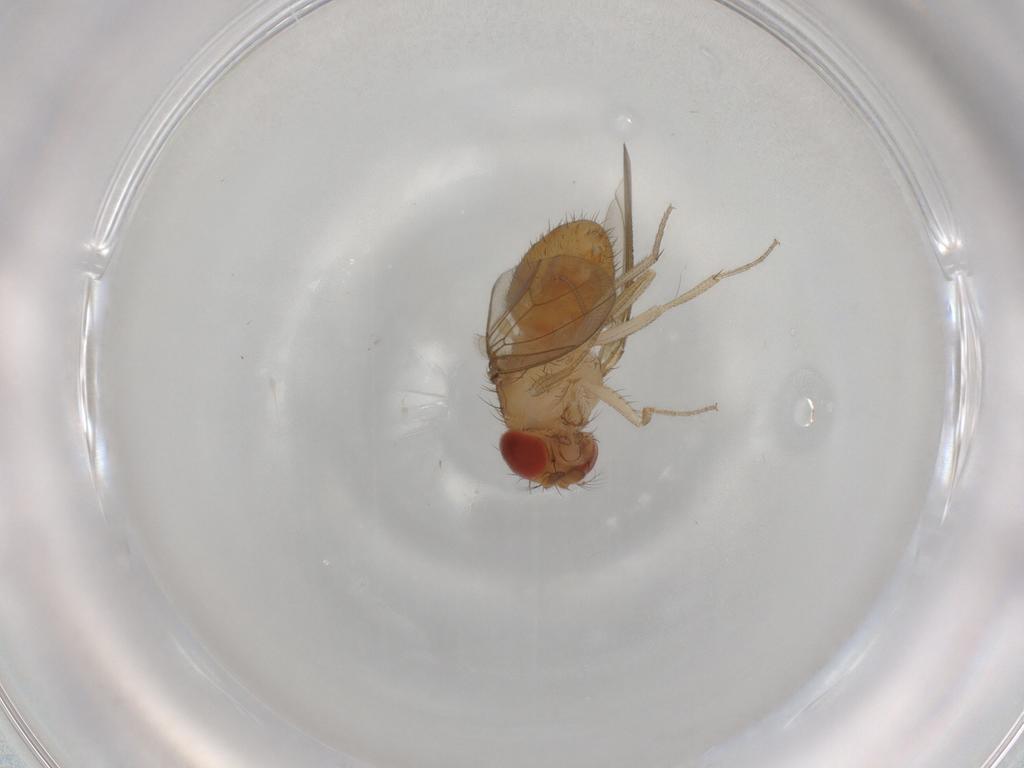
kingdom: Animalia
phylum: Arthropoda
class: Insecta
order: Diptera
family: Drosophilidae
